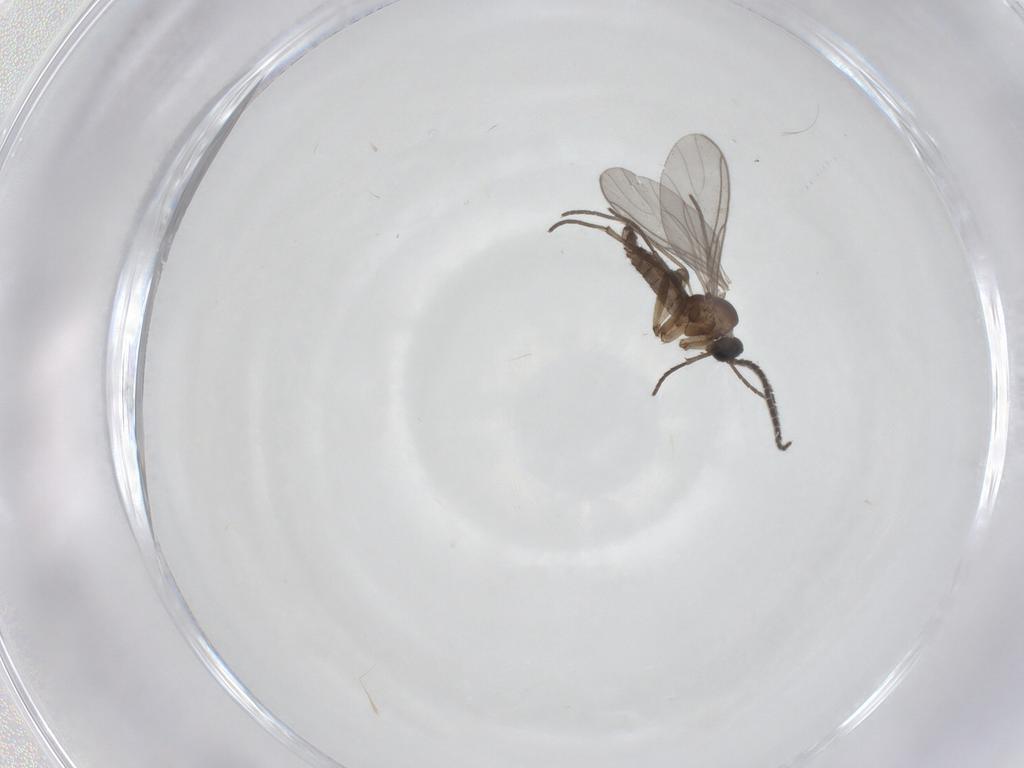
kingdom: Animalia
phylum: Arthropoda
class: Insecta
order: Diptera
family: Sciaridae
